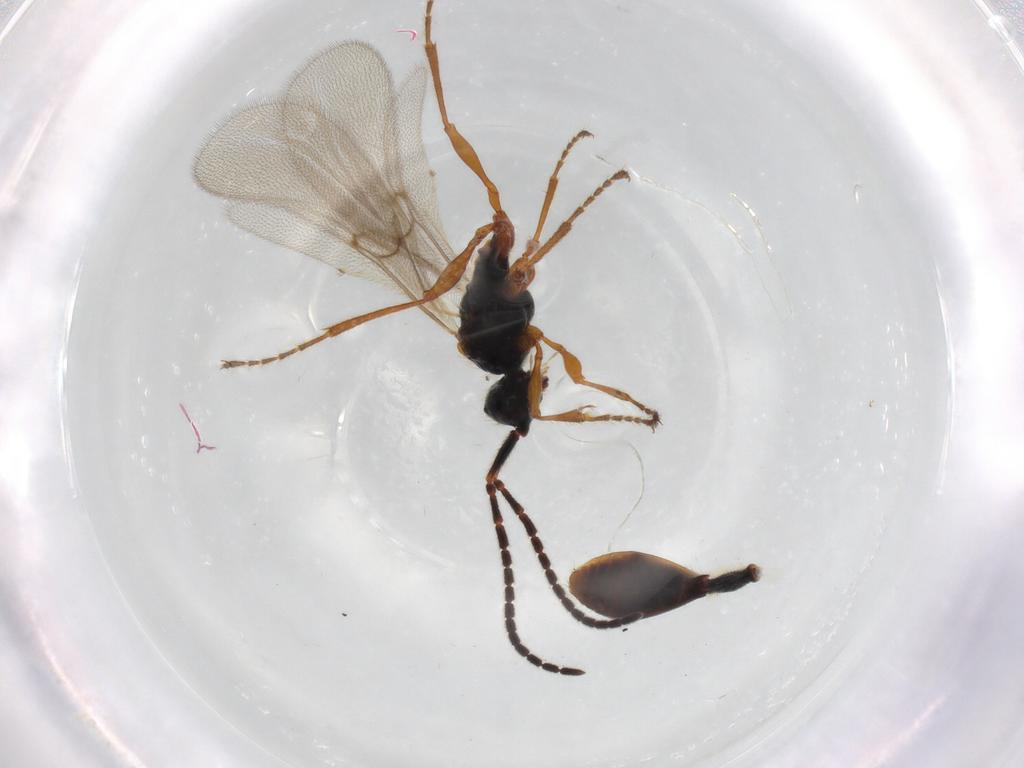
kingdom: Animalia
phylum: Arthropoda
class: Insecta
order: Hymenoptera
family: Diapriidae
